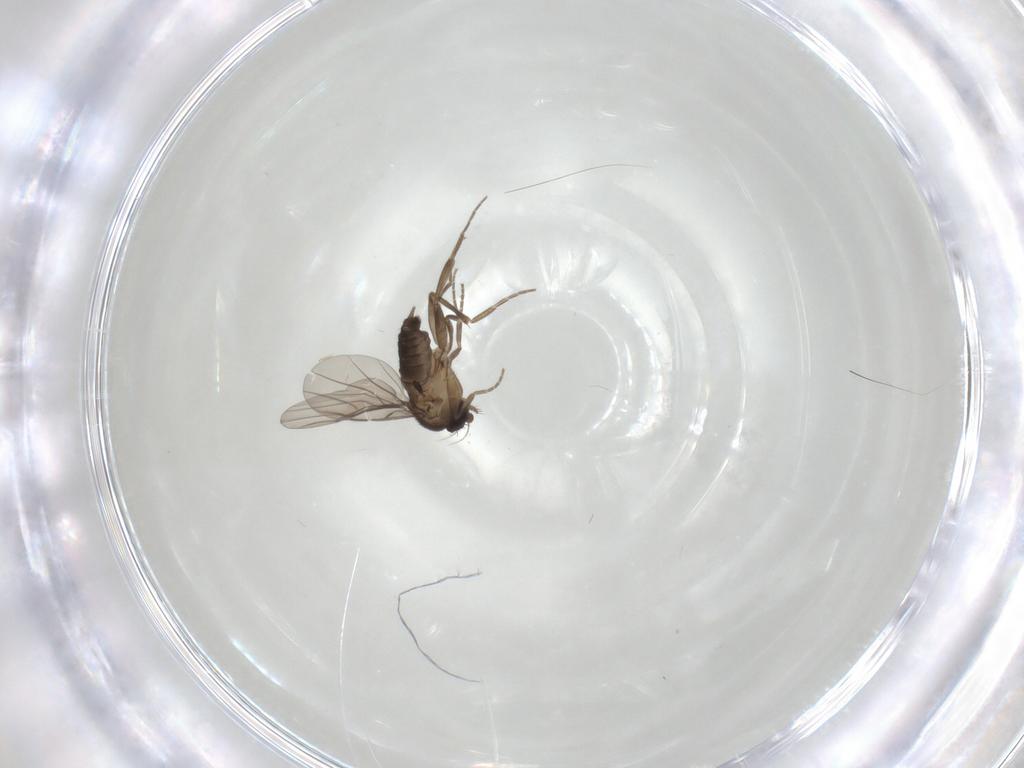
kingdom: Animalia
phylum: Arthropoda
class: Insecta
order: Diptera
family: Phoridae
